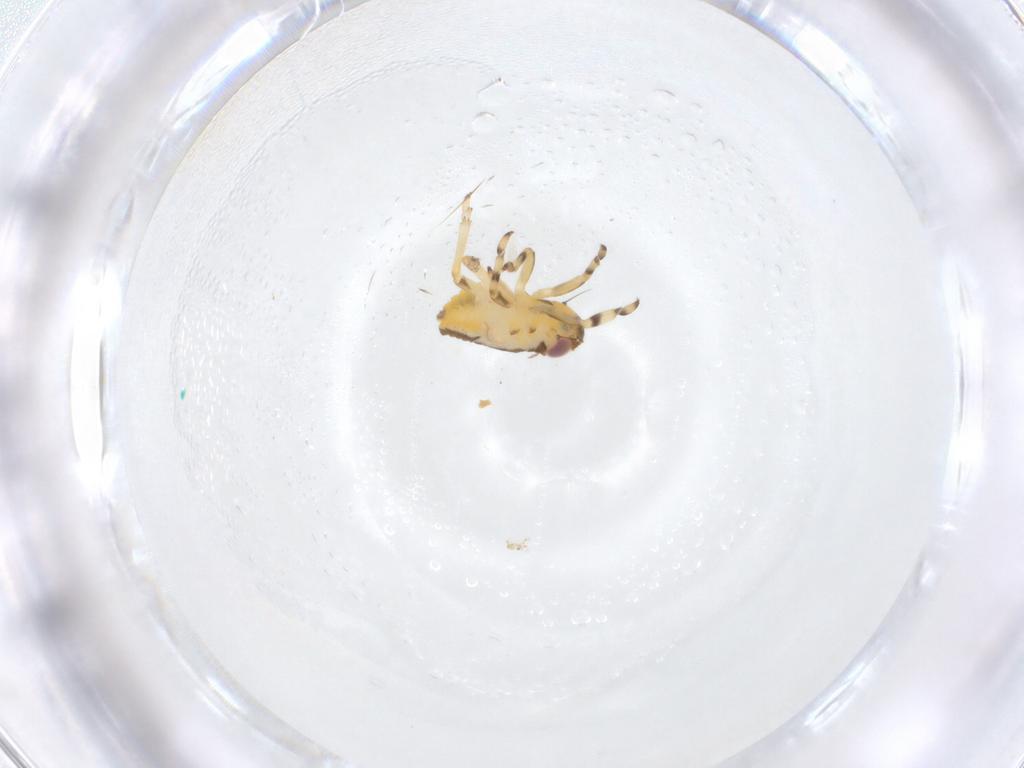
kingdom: Animalia
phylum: Arthropoda
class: Insecta
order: Hemiptera
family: Issidae
